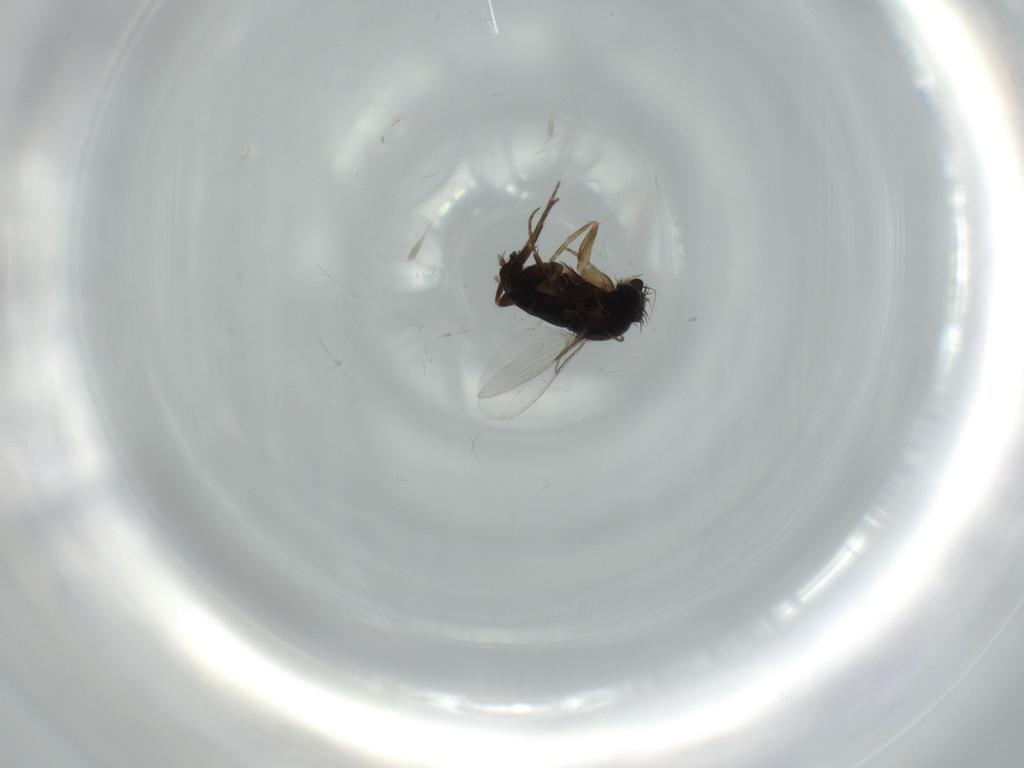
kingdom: Animalia
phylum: Arthropoda
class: Insecta
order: Diptera
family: Phoridae
